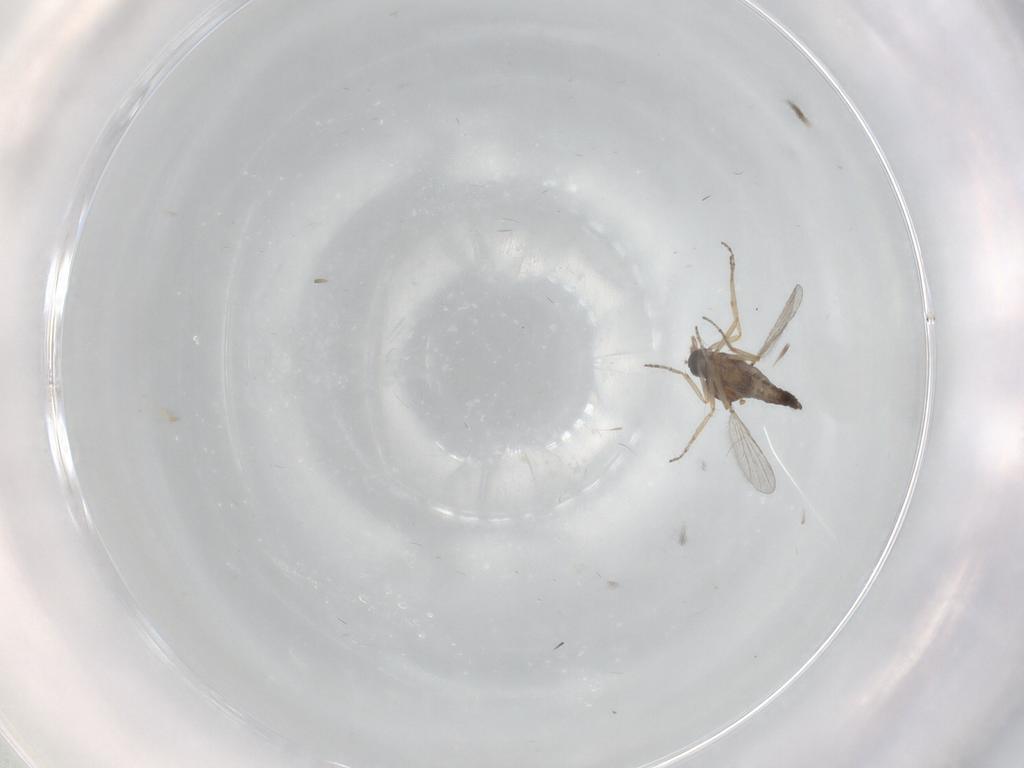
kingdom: Animalia
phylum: Arthropoda
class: Insecta
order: Diptera
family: Ceratopogonidae
